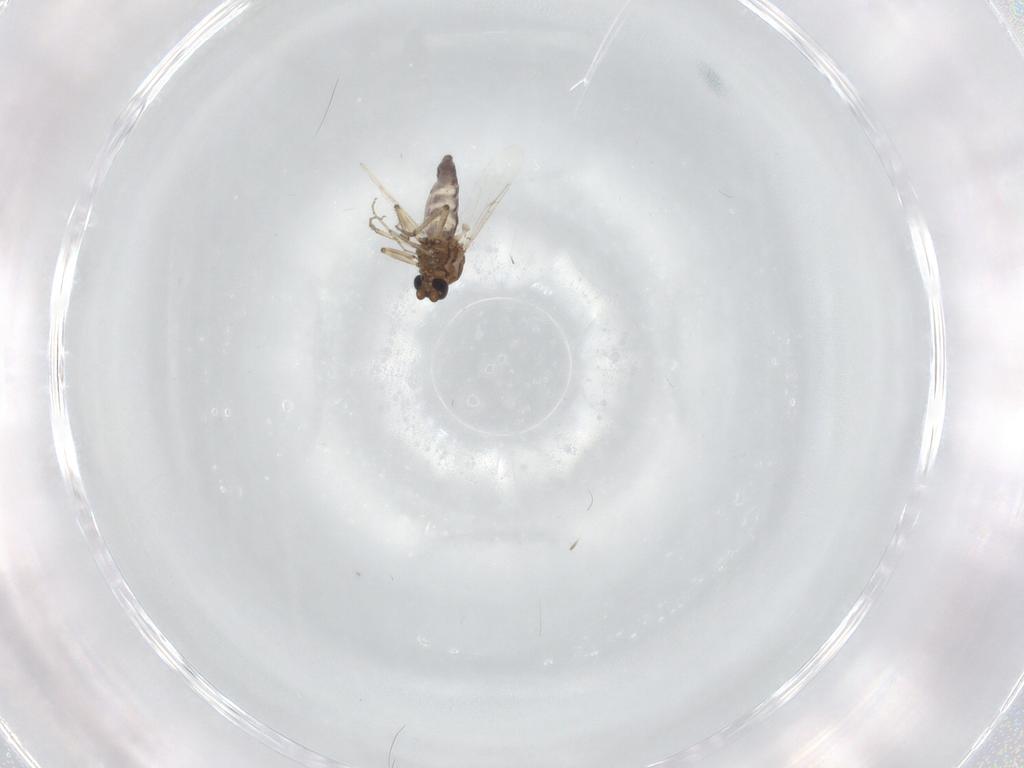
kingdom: Animalia
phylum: Arthropoda
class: Insecta
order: Diptera
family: Ceratopogonidae
